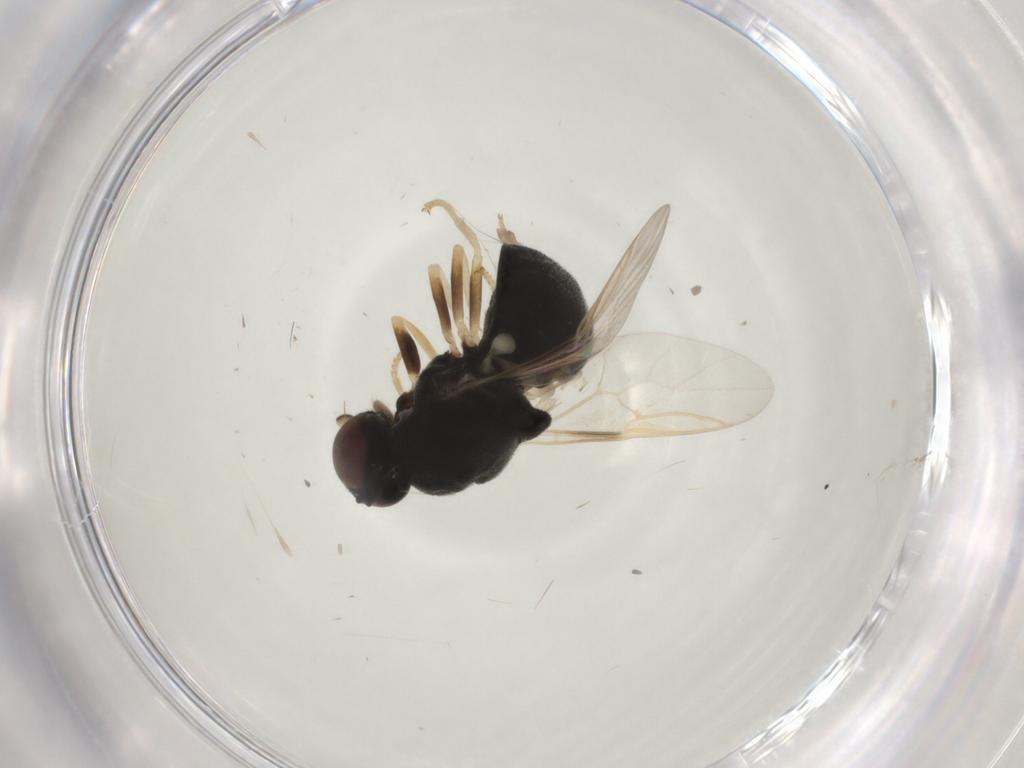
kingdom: Animalia
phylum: Arthropoda
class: Insecta
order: Diptera
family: Stratiomyidae
